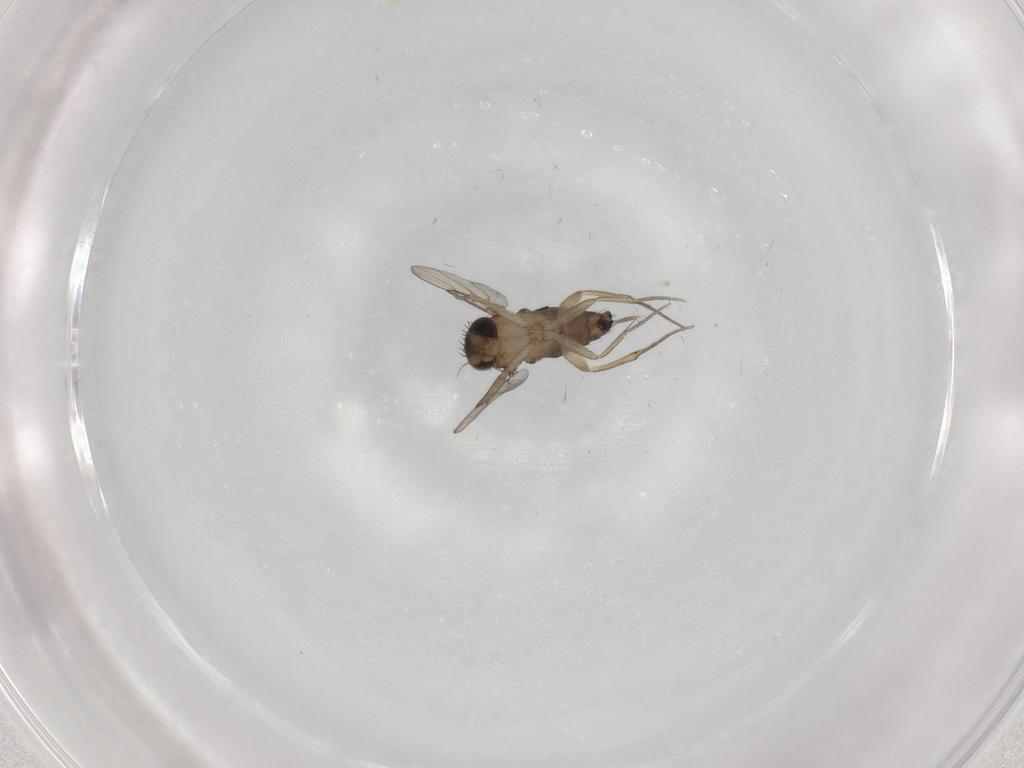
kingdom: Animalia
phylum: Arthropoda
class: Insecta
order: Diptera
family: Phoridae
